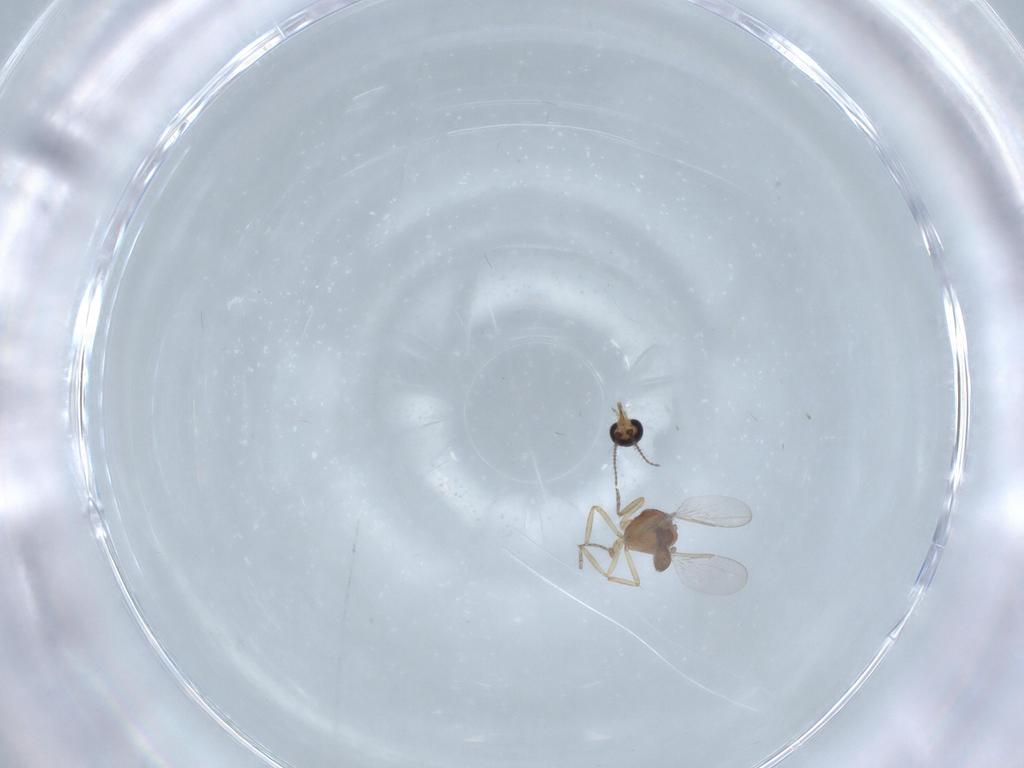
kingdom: Animalia
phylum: Arthropoda
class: Insecta
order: Diptera
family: Ceratopogonidae
